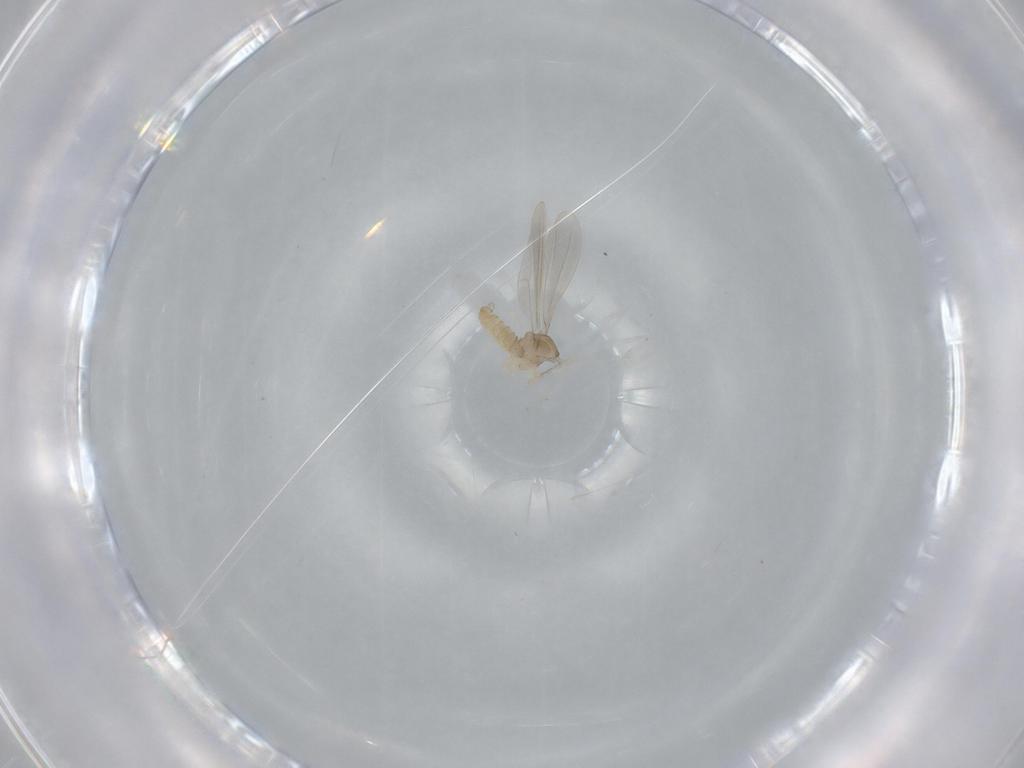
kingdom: Animalia
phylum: Arthropoda
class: Insecta
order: Diptera
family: Cecidomyiidae
